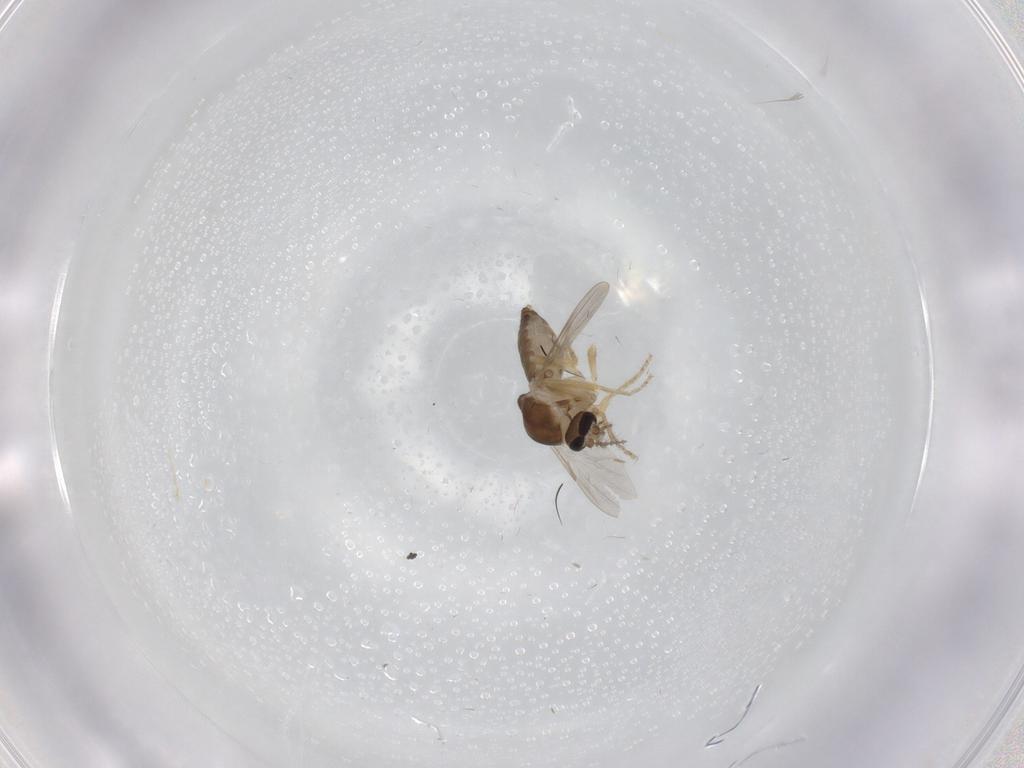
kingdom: Animalia
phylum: Arthropoda
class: Insecta
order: Diptera
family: Ceratopogonidae
